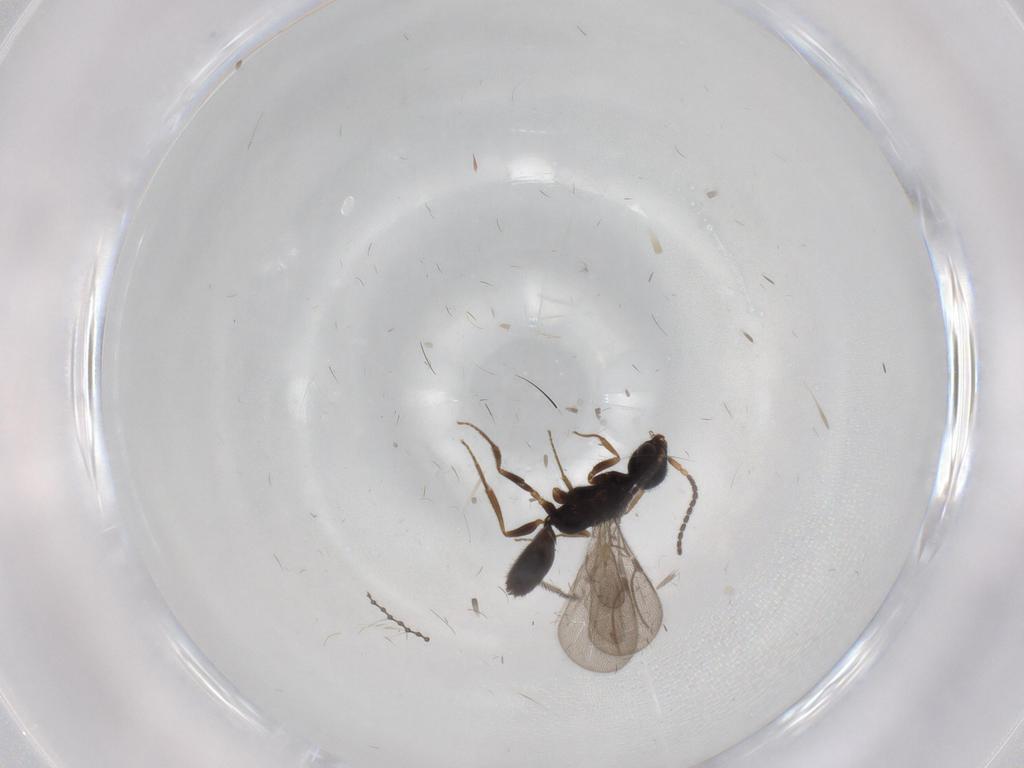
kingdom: Animalia
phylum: Arthropoda
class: Insecta
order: Hymenoptera
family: Bethylidae
